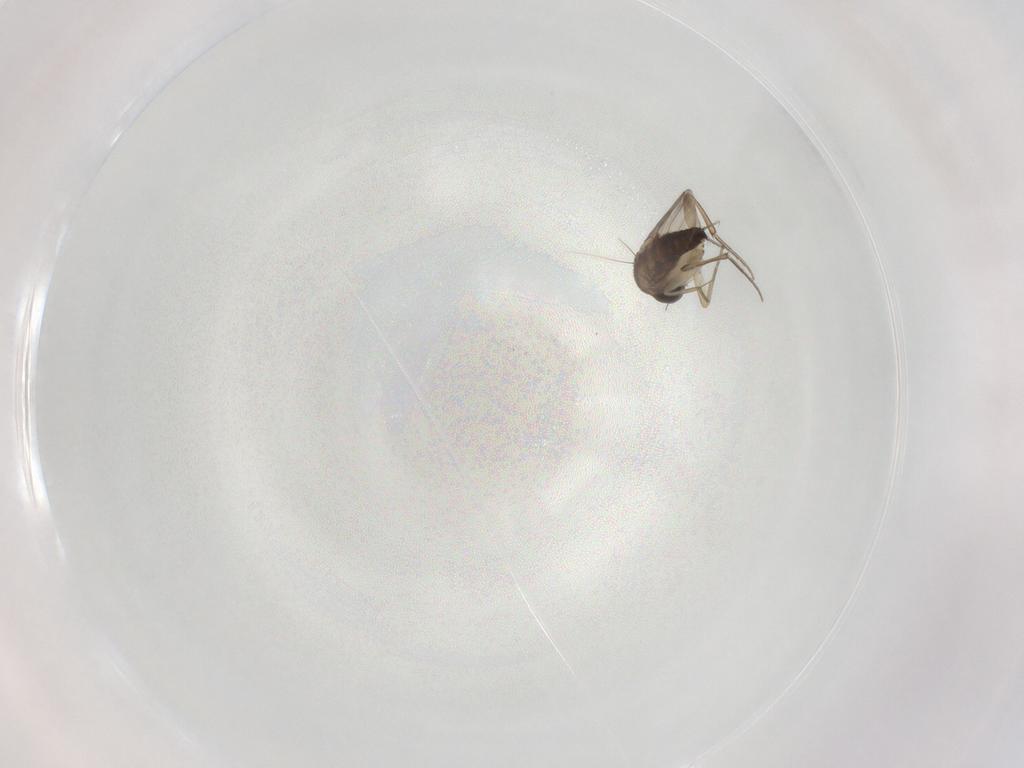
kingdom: Animalia
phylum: Arthropoda
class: Insecta
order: Diptera
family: Phoridae
